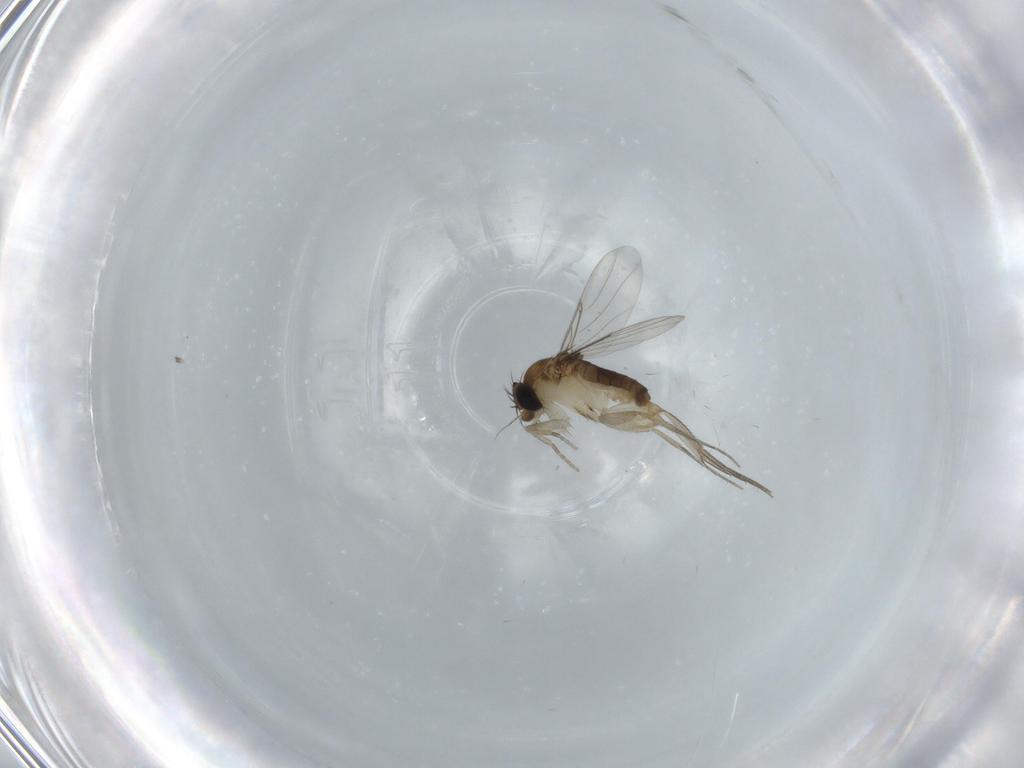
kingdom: Animalia
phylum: Arthropoda
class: Insecta
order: Diptera
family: Phoridae
